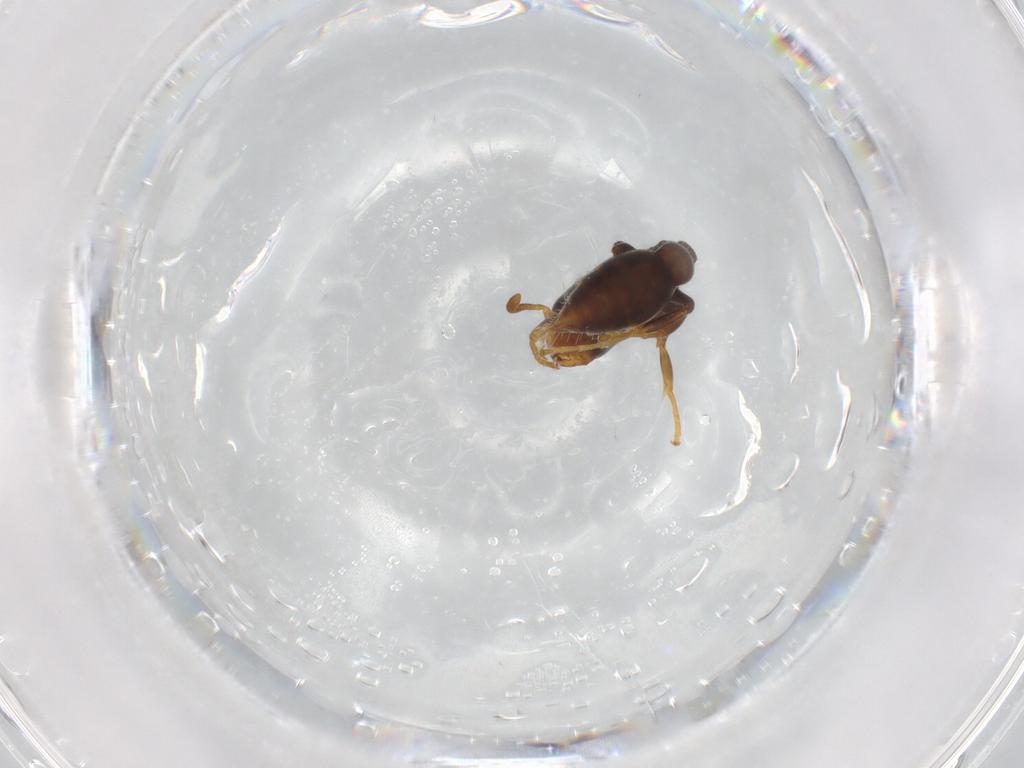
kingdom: Animalia
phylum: Arthropoda
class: Insecta
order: Hymenoptera
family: Formicidae
